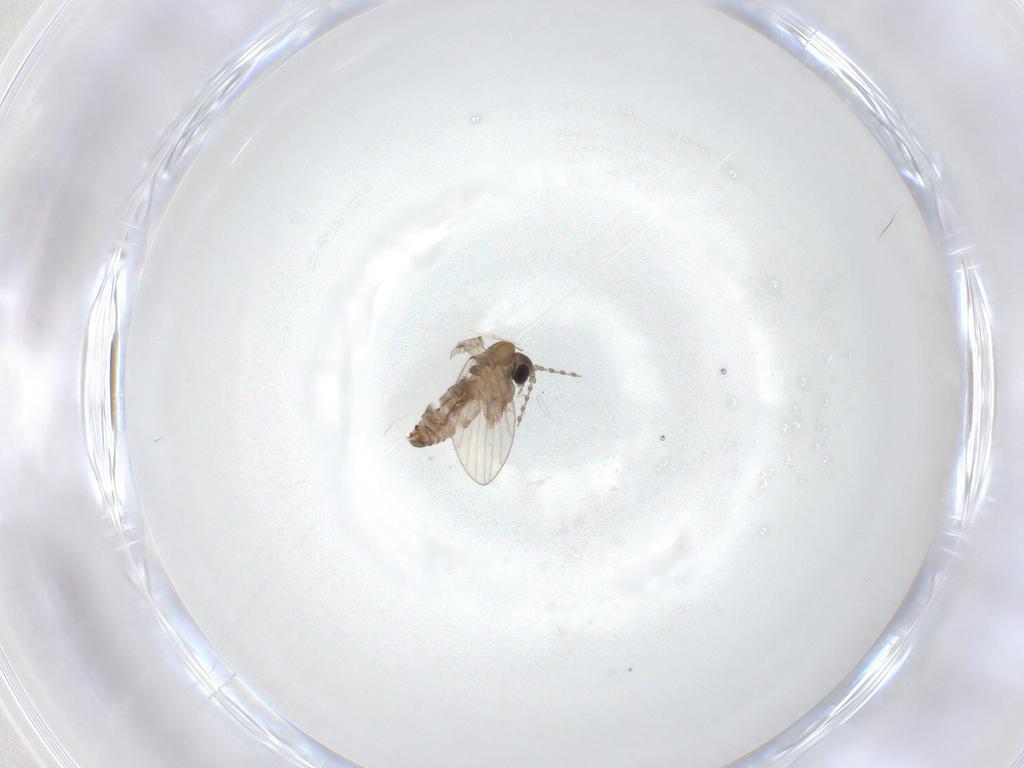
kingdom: Animalia
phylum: Arthropoda
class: Insecta
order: Diptera
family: Psychodidae
